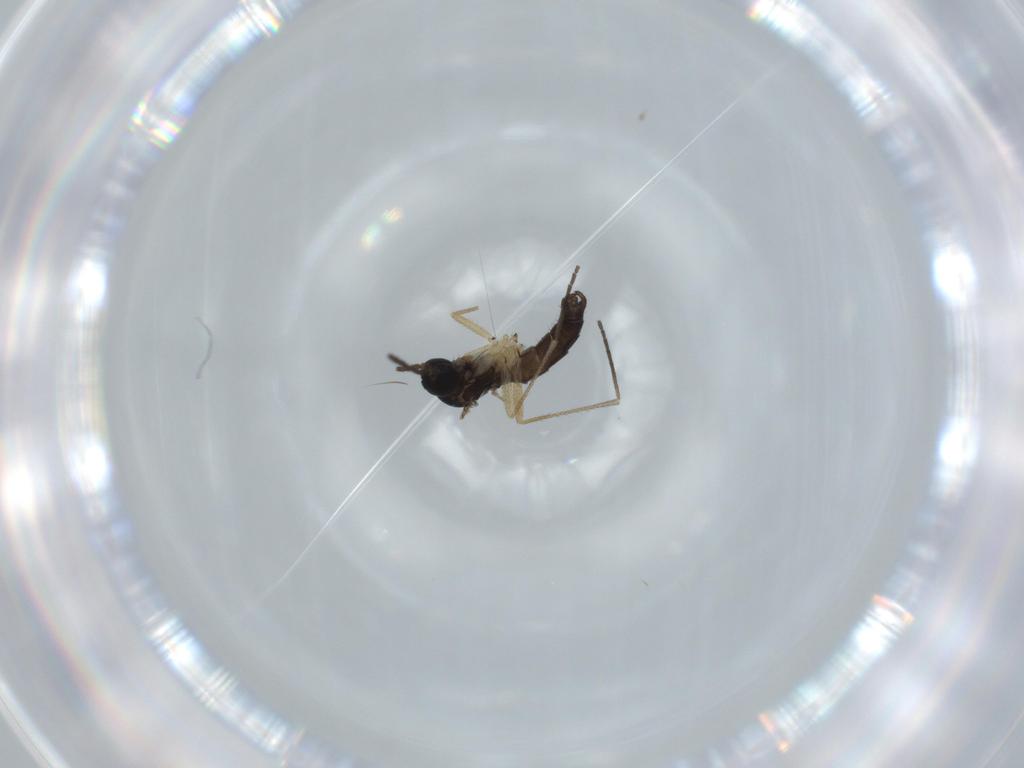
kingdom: Animalia
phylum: Arthropoda
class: Insecta
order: Diptera
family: Sciaridae
